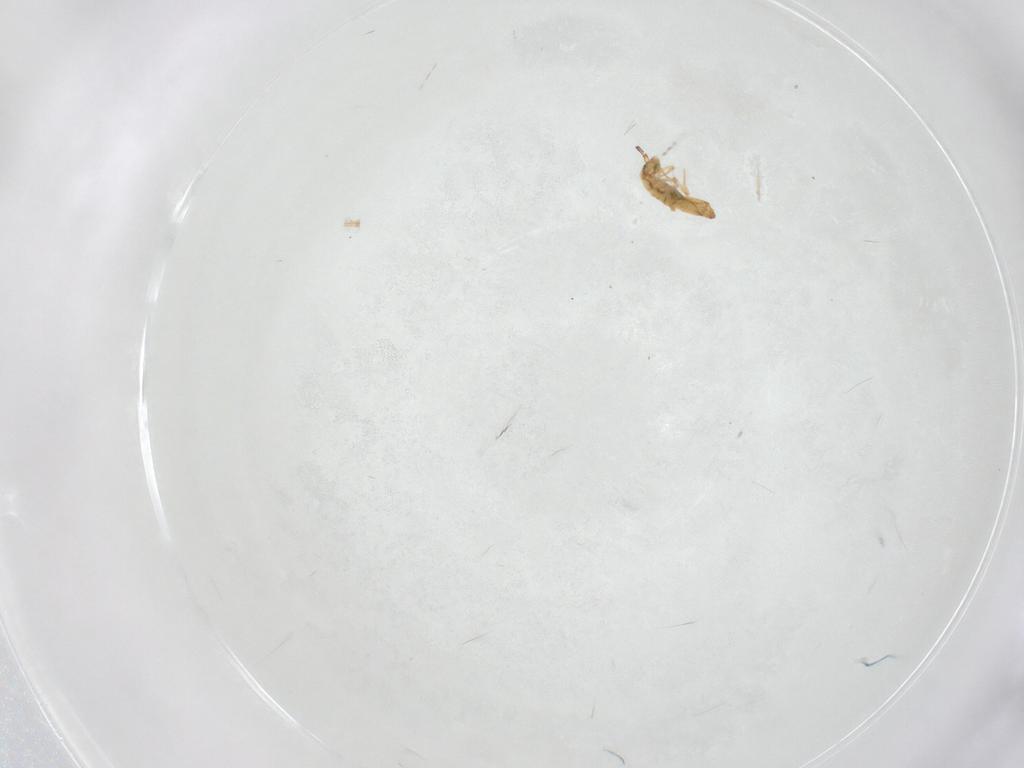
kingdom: Animalia
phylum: Arthropoda
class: Collembola
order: Entomobryomorpha
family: Entomobryidae
